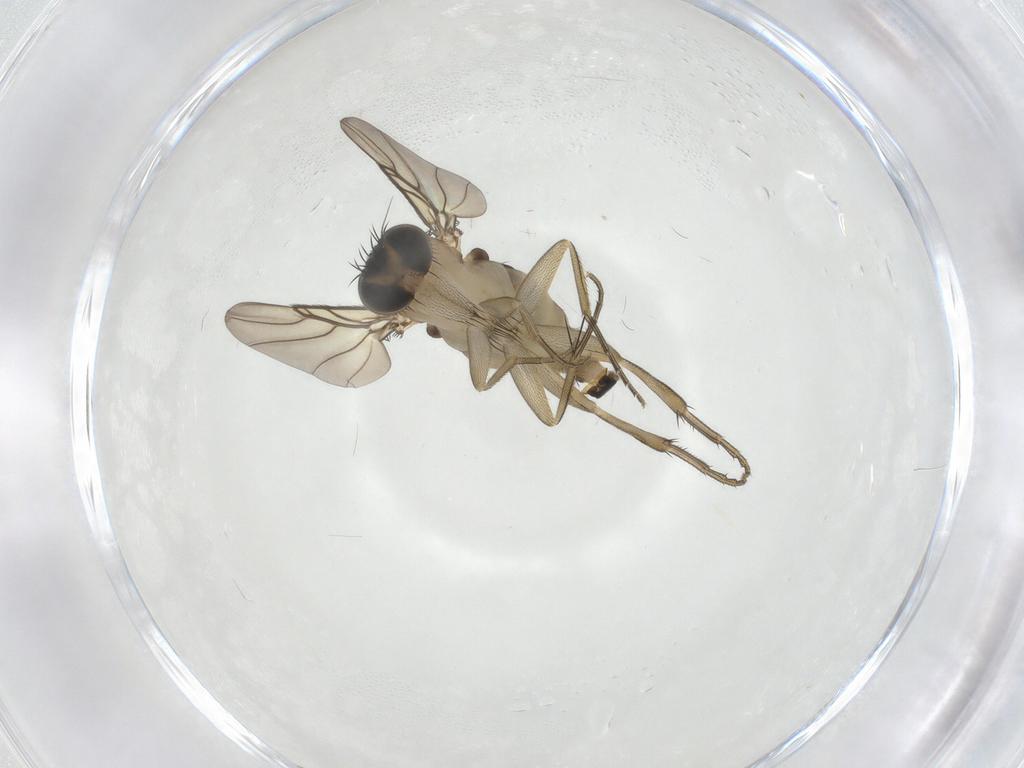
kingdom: Animalia
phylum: Arthropoda
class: Insecta
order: Diptera
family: Phoridae
